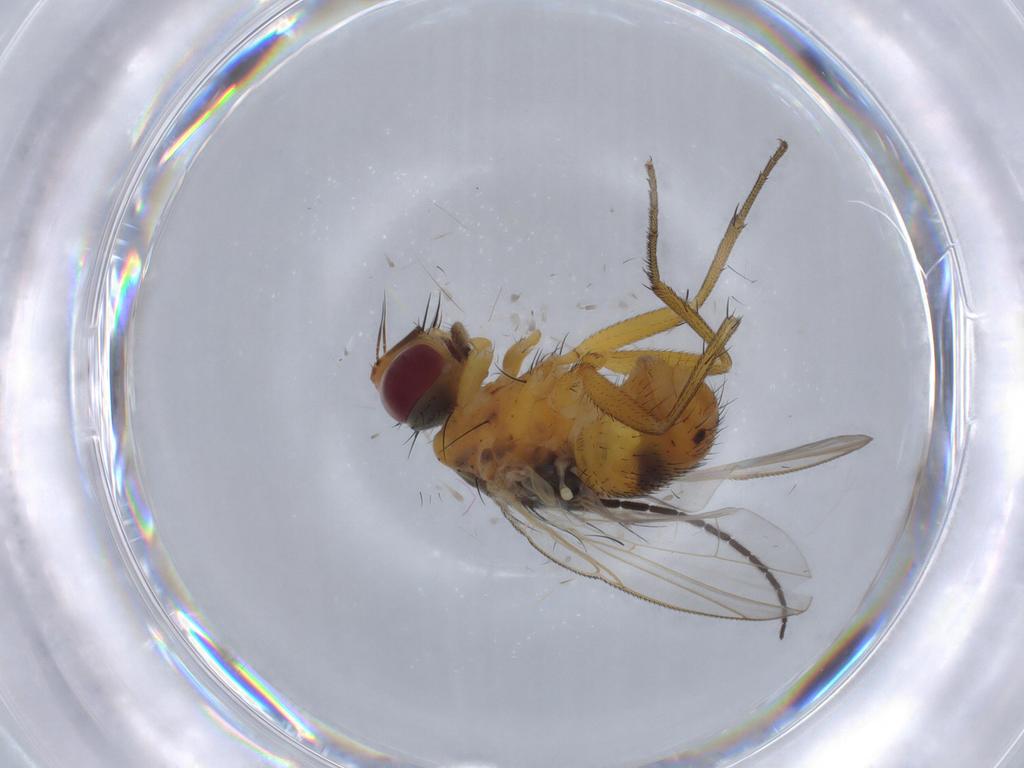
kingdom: Animalia
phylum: Arthropoda
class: Insecta
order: Diptera
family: Muscidae
